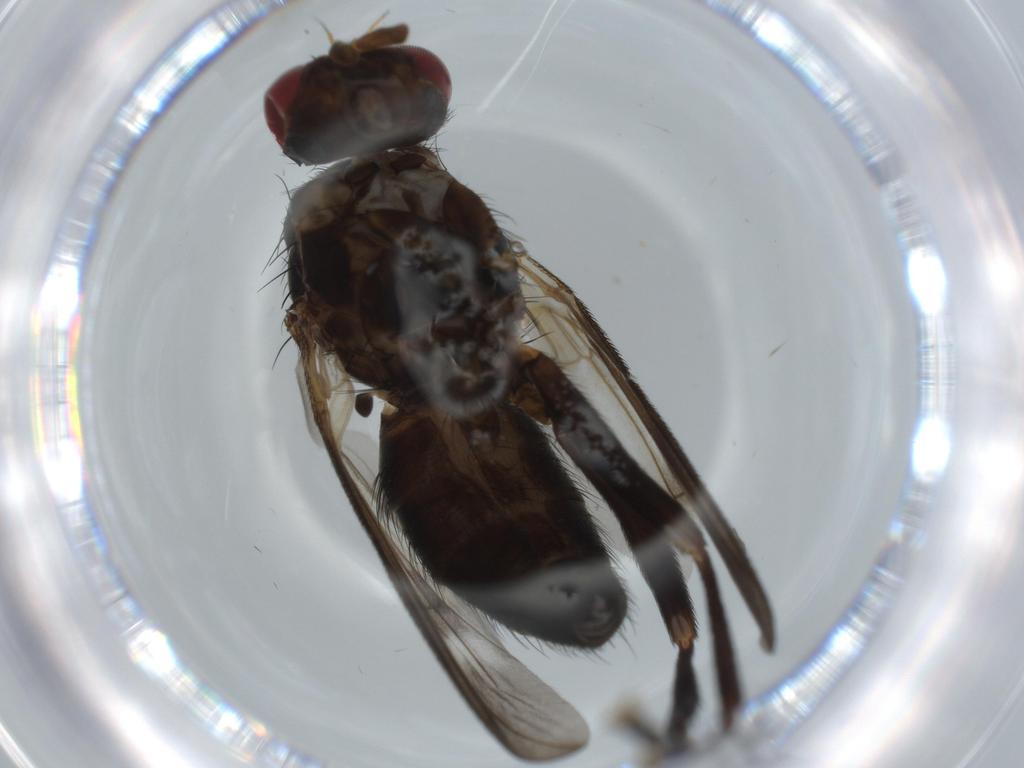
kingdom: Animalia
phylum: Arthropoda
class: Insecta
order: Diptera
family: Calliphoridae
